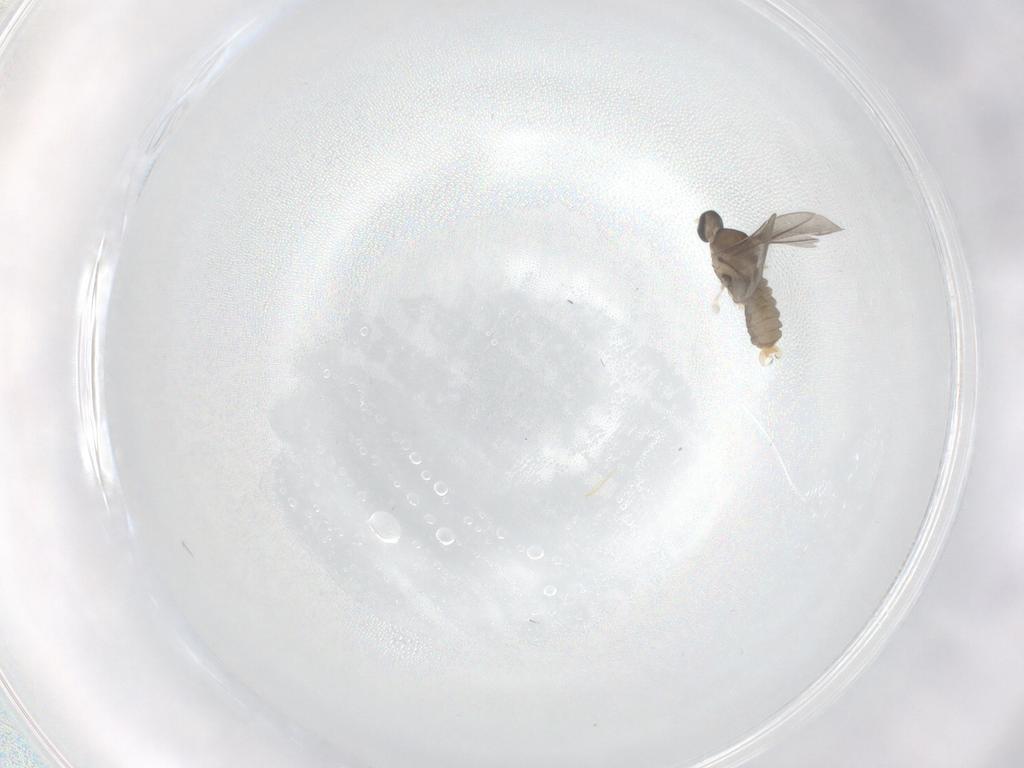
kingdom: Animalia
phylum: Arthropoda
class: Insecta
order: Diptera
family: Cecidomyiidae
